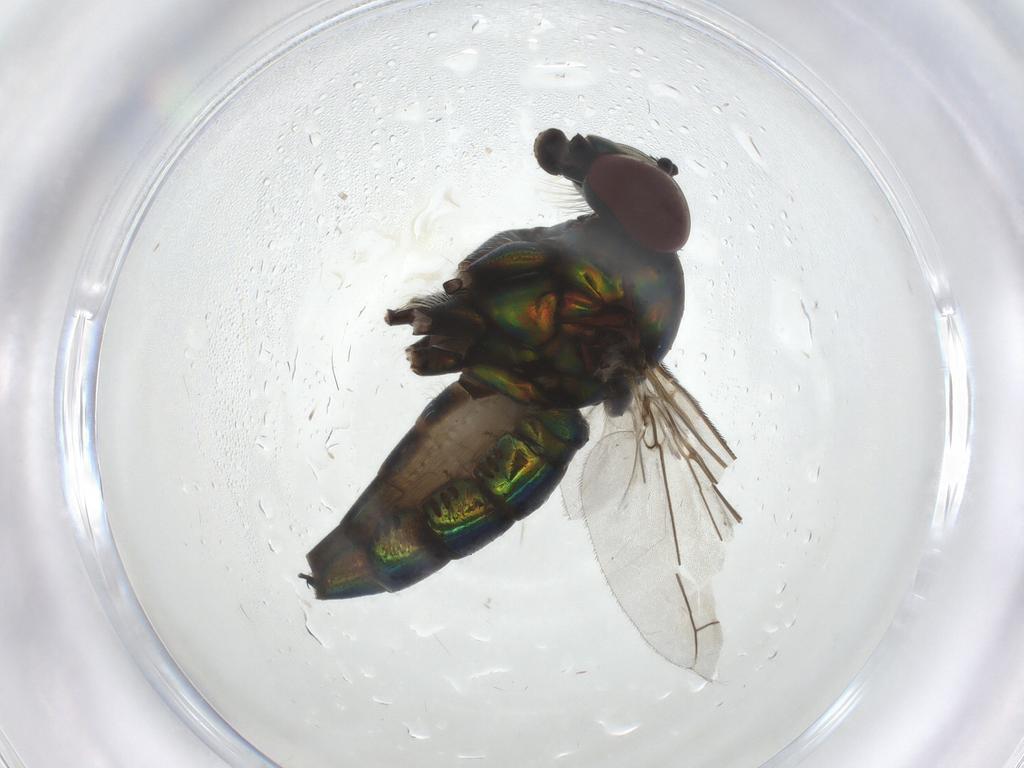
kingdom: Animalia
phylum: Arthropoda
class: Insecta
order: Diptera
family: Dolichopodidae
